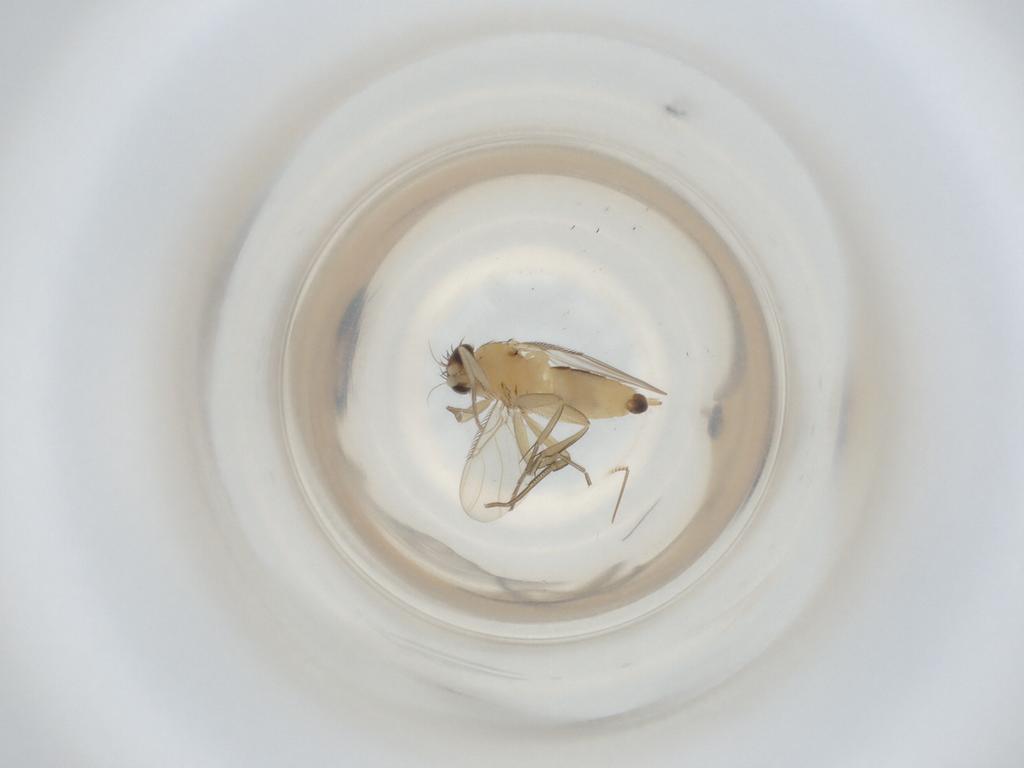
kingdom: Animalia
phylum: Arthropoda
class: Insecta
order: Diptera
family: Phoridae
